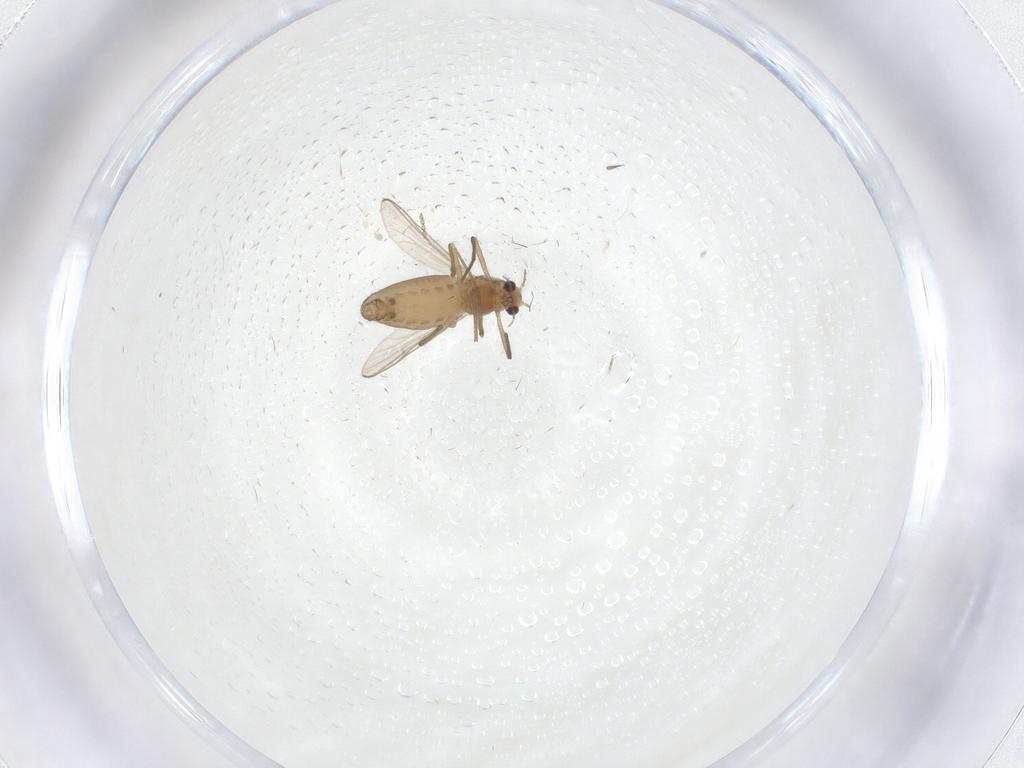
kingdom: Animalia
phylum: Arthropoda
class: Insecta
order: Diptera
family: Chironomidae
